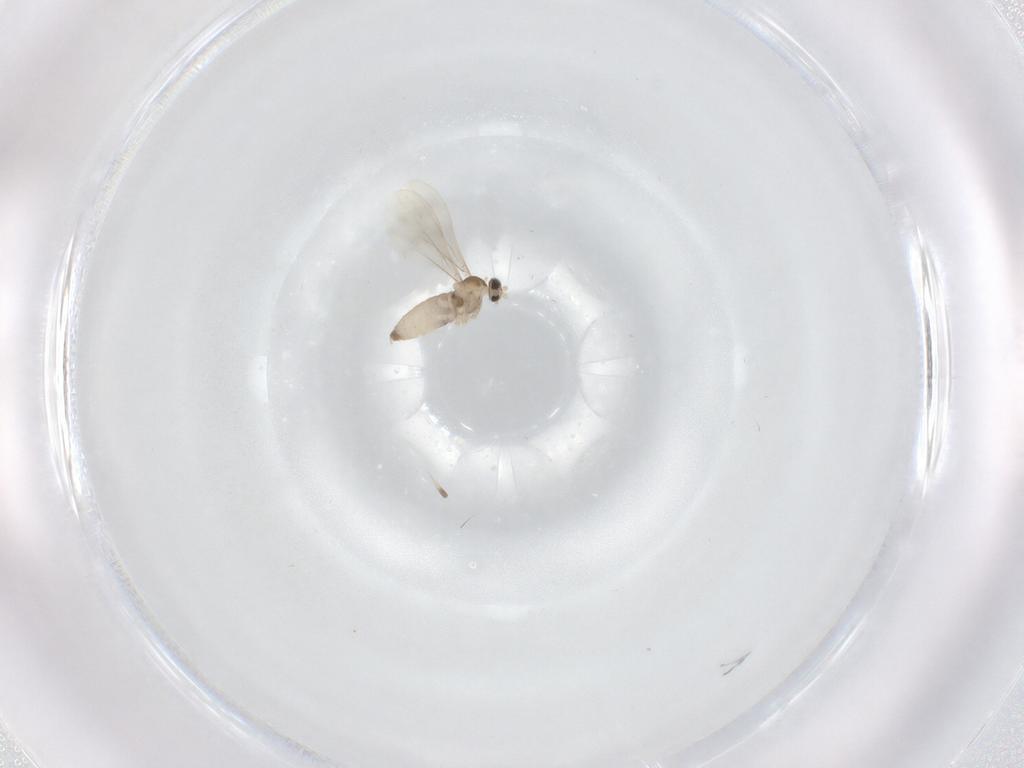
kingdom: Animalia
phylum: Arthropoda
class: Insecta
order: Diptera
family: Cecidomyiidae
